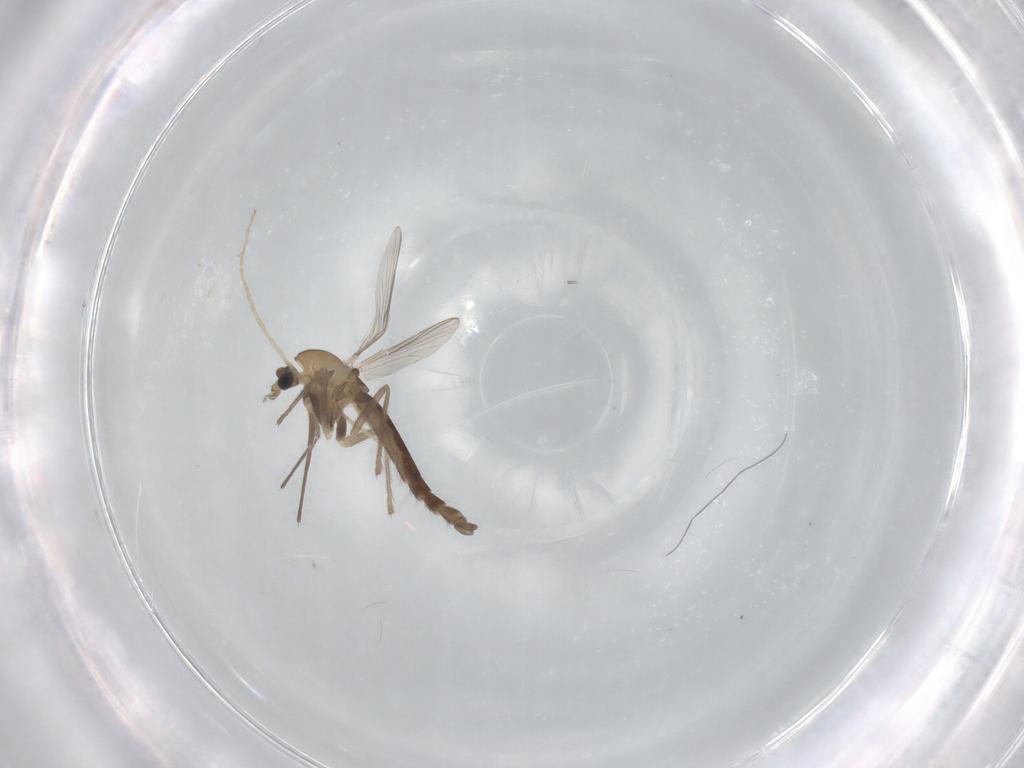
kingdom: Animalia
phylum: Arthropoda
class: Insecta
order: Diptera
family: Chironomidae
